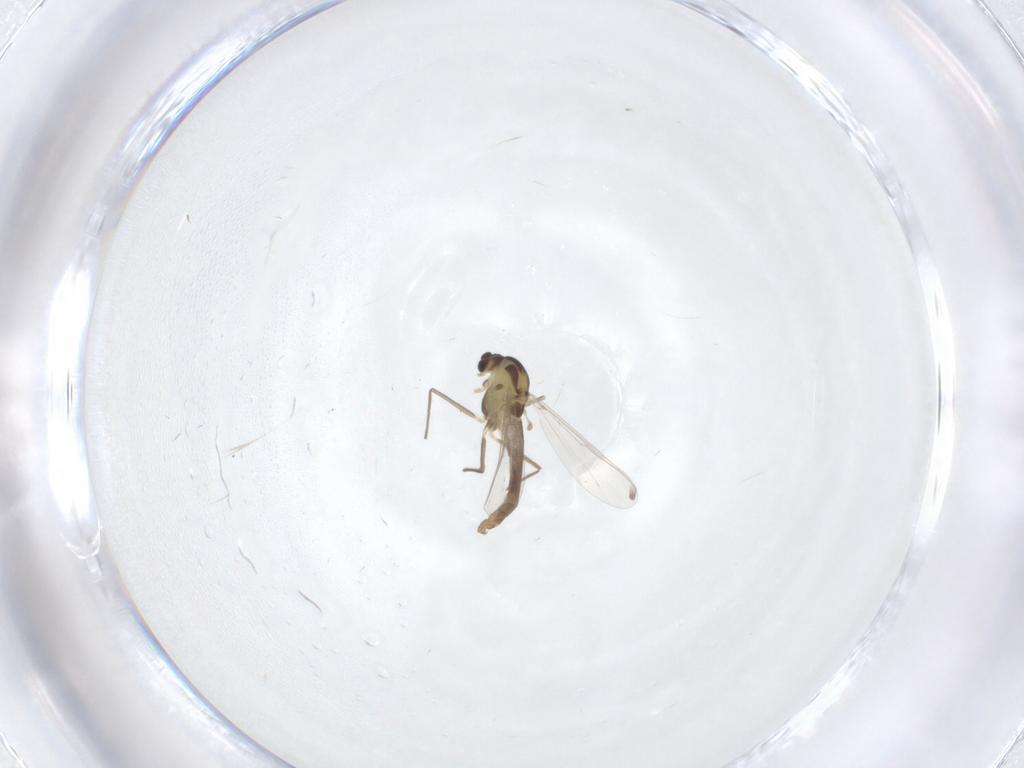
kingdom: Animalia
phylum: Arthropoda
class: Insecta
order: Diptera
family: Chironomidae
